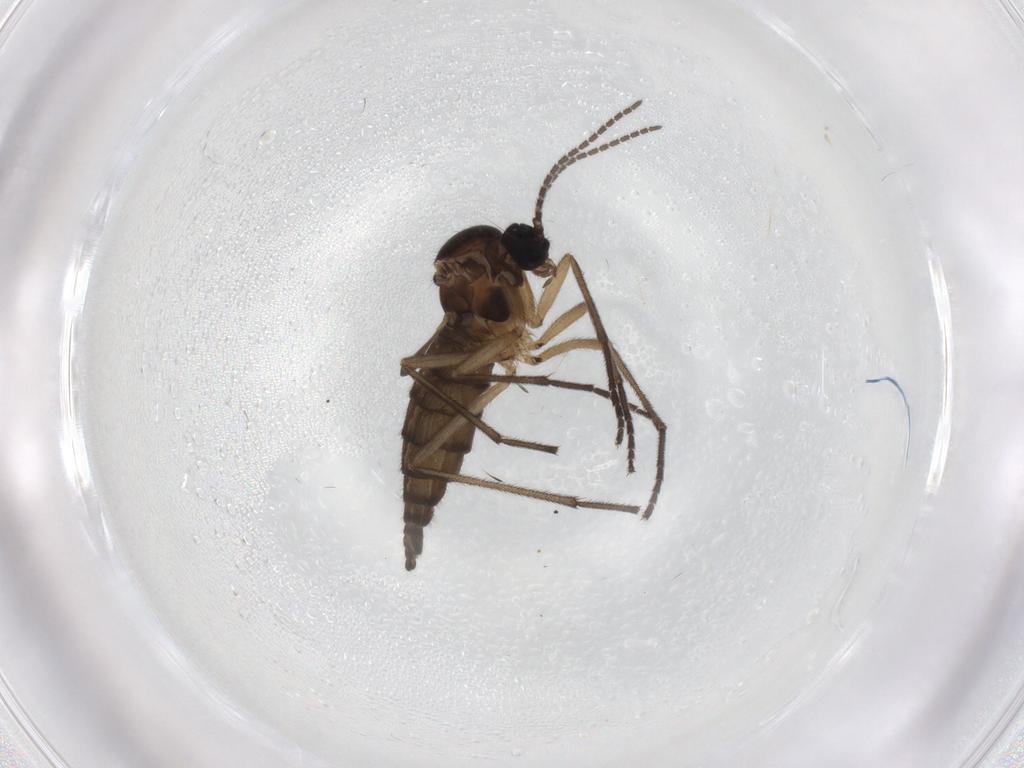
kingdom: Animalia
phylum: Arthropoda
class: Insecta
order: Diptera
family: Sciaridae
